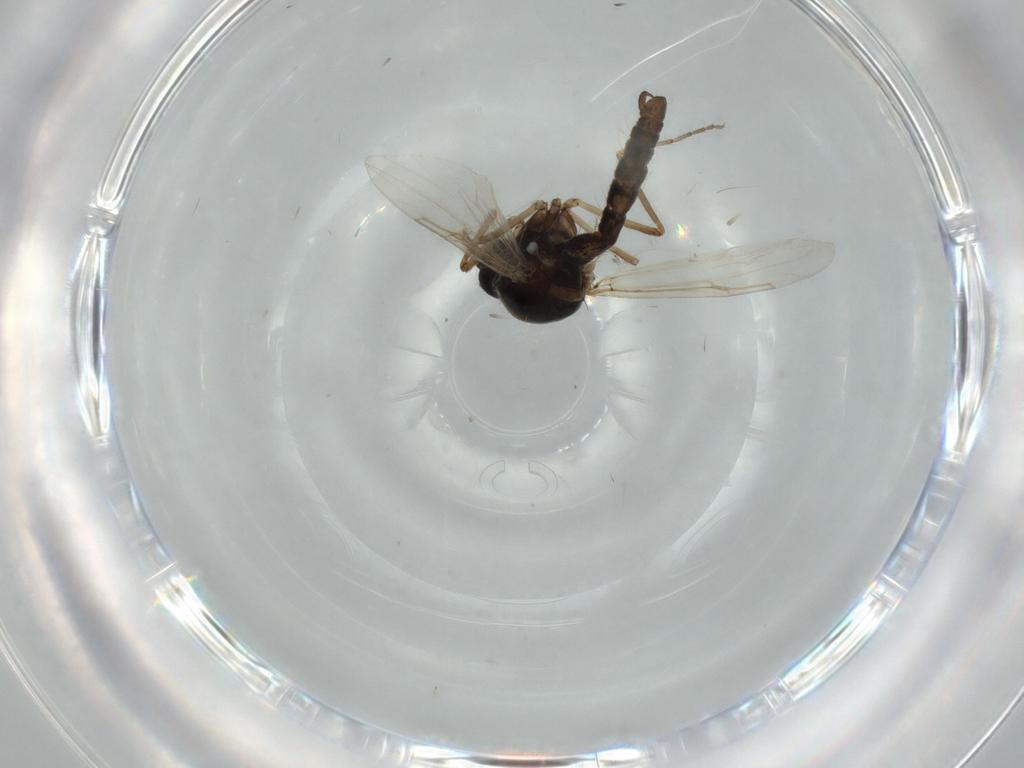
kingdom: Animalia
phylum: Arthropoda
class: Insecta
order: Diptera
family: Ceratopogonidae
